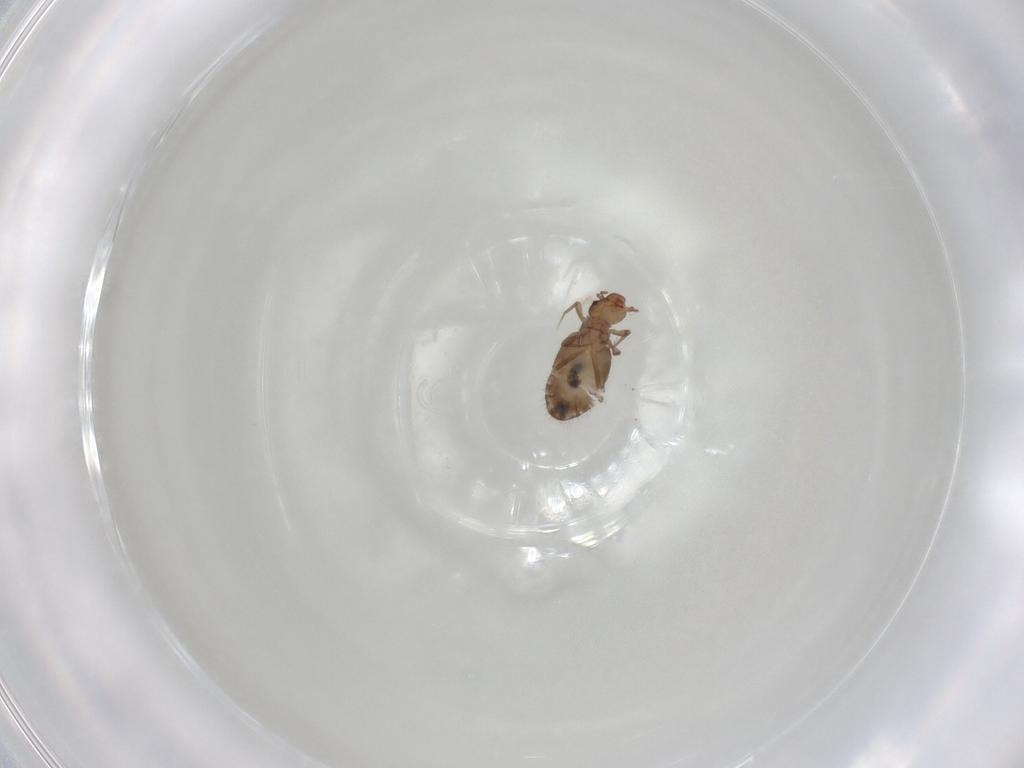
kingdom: Animalia
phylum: Arthropoda
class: Insecta
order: Psocodea
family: Liposcelididae
